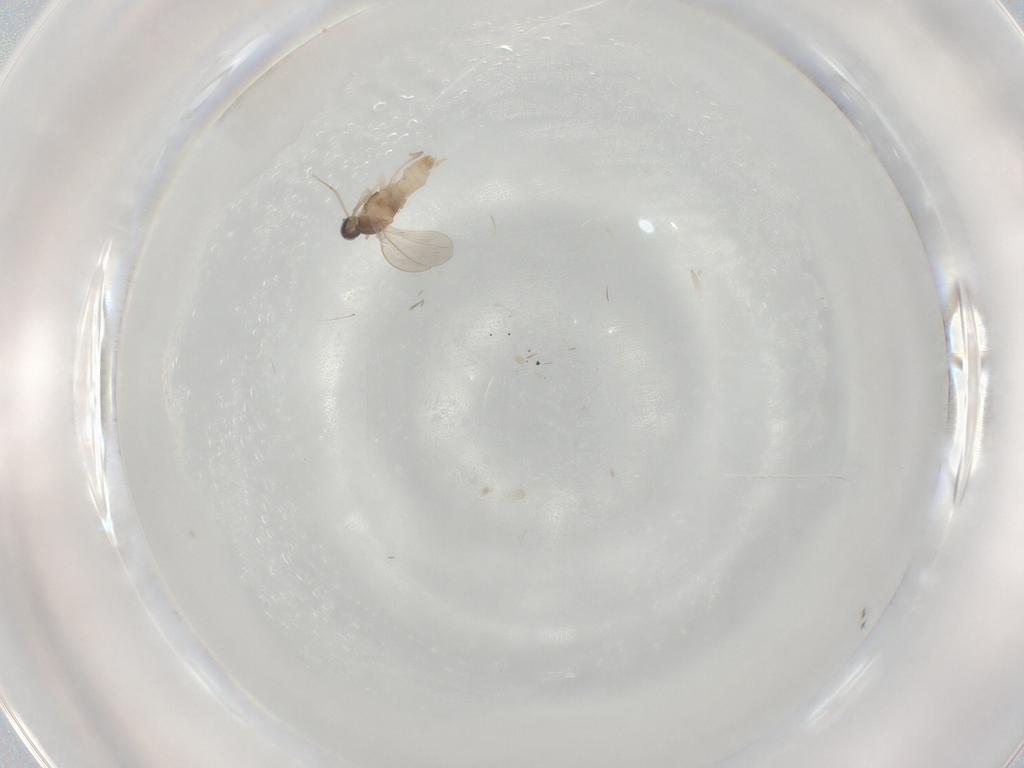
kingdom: Animalia
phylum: Arthropoda
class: Insecta
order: Diptera
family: Cecidomyiidae
